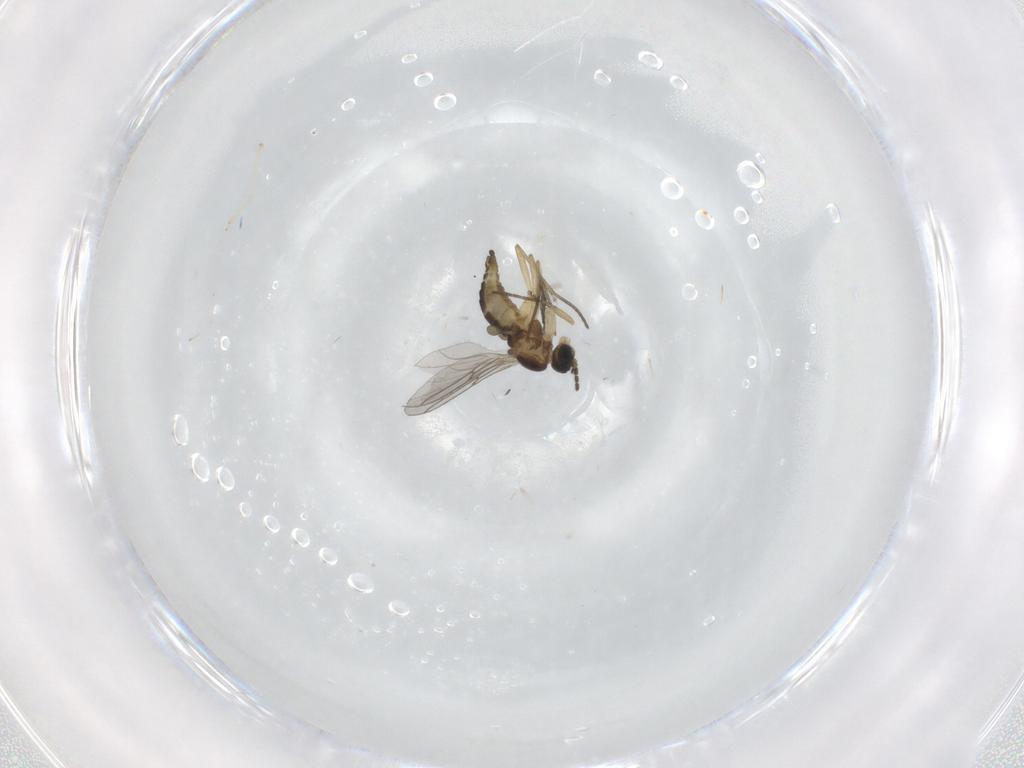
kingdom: Animalia
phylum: Arthropoda
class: Insecta
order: Diptera
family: Sciaridae
